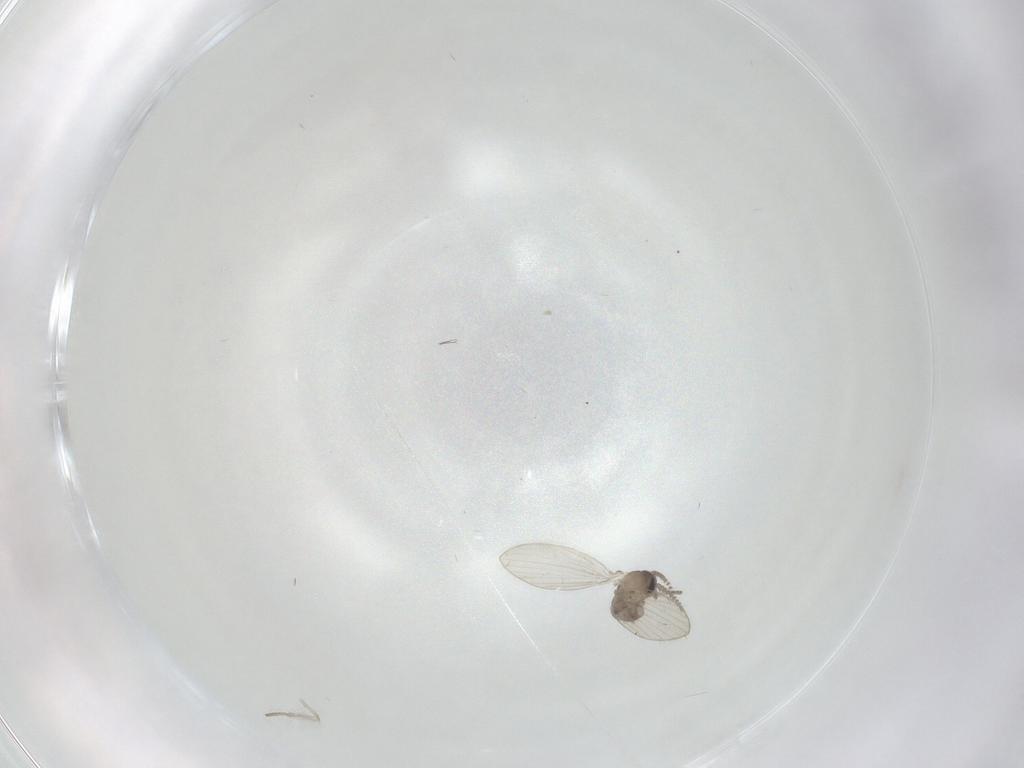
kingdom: Animalia
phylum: Arthropoda
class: Insecta
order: Diptera
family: Psychodidae
